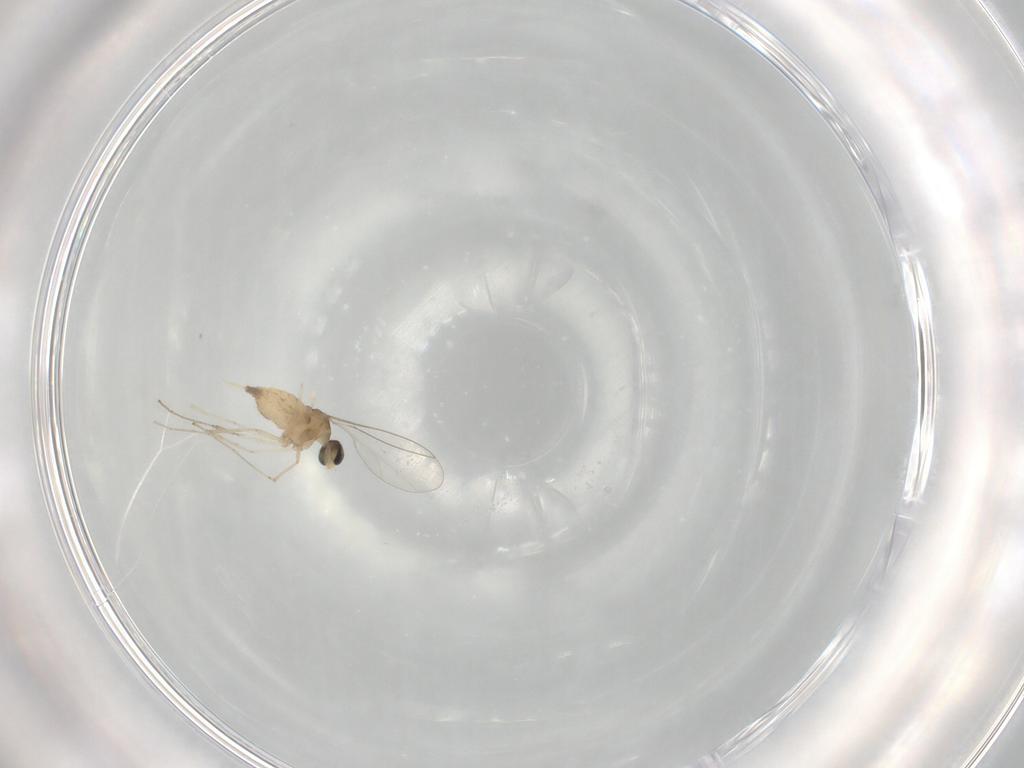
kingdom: Animalia
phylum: Arthropoda
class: Insecta
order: Diptera
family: Cecidomyiidae
